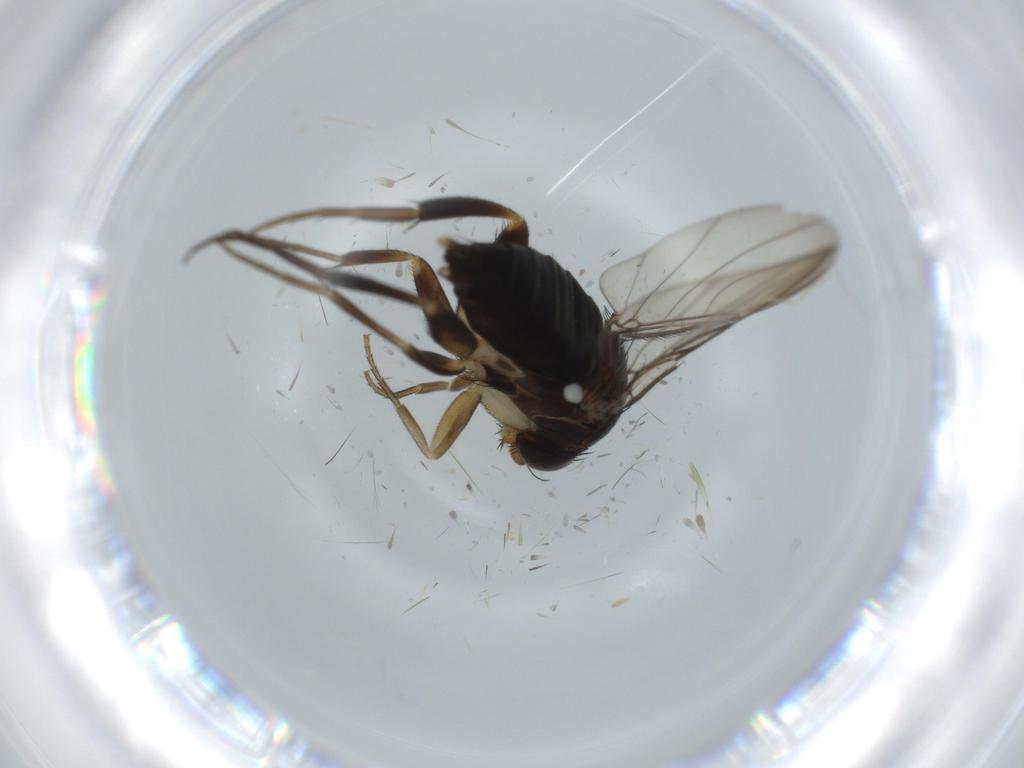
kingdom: Animalia
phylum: Arthropoda
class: Insecta
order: Diptera
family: Phoridae
